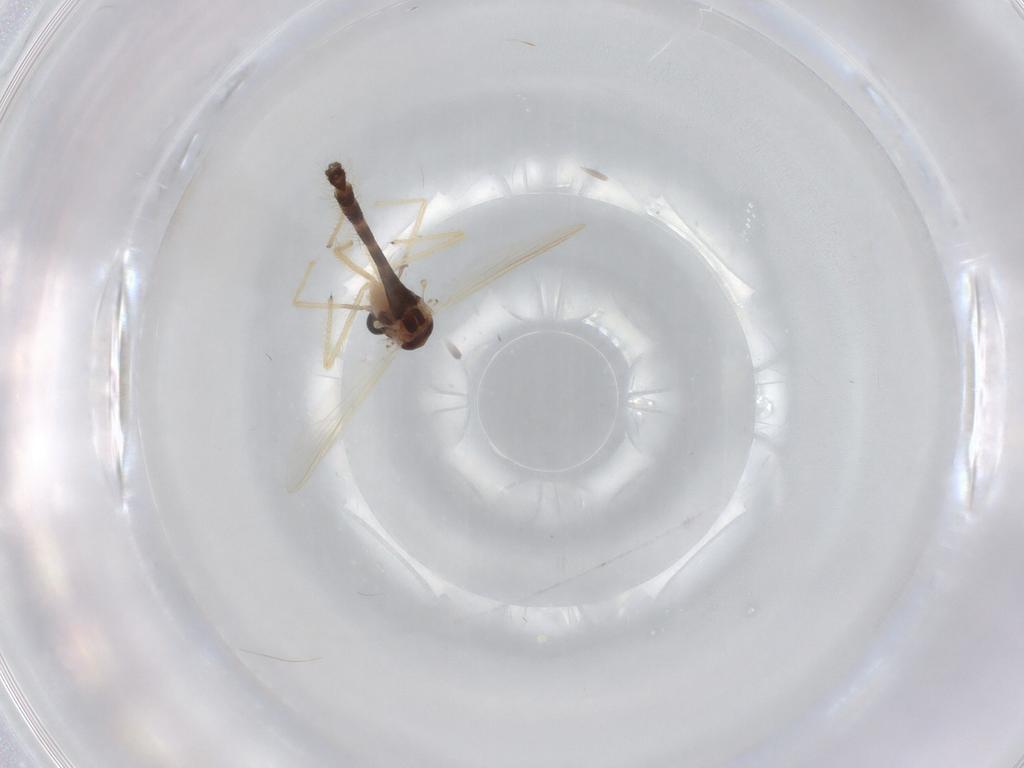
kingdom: Animalia
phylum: Arthropoda
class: Insecta
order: Diptera
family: Chironomidae
